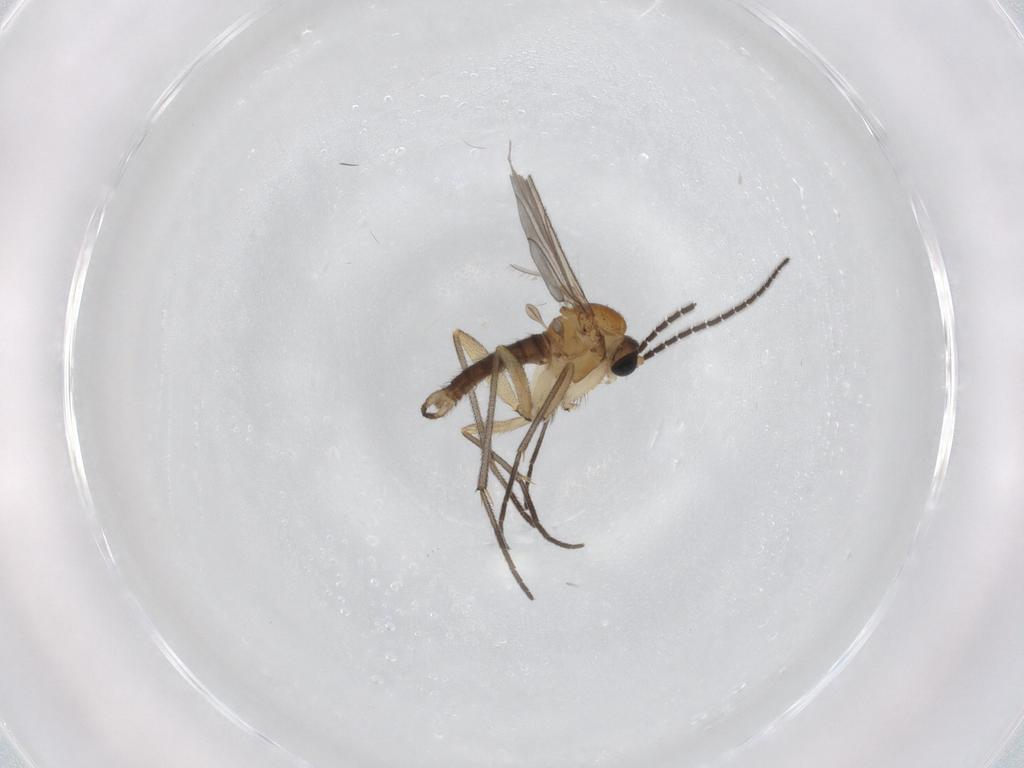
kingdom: Animalia
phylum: Arthropoda
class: Insecta
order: Diptera
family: Sciaridae
